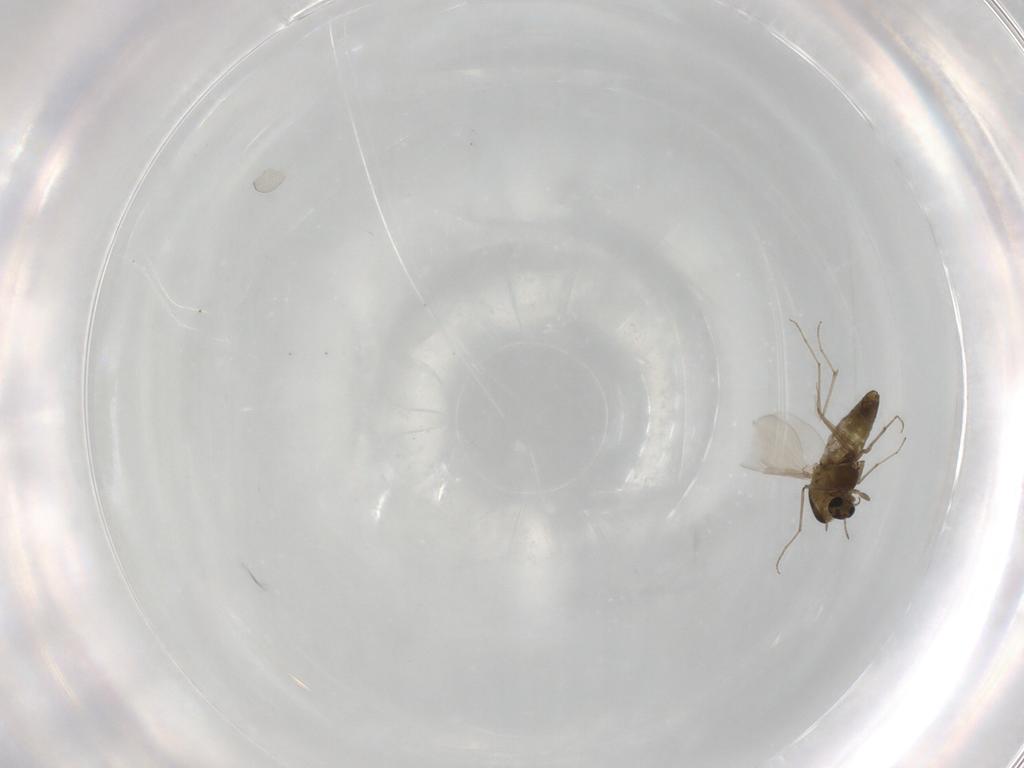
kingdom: Animalia
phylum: Arthropoda
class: Insecta
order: Diptera
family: Chironomidae
